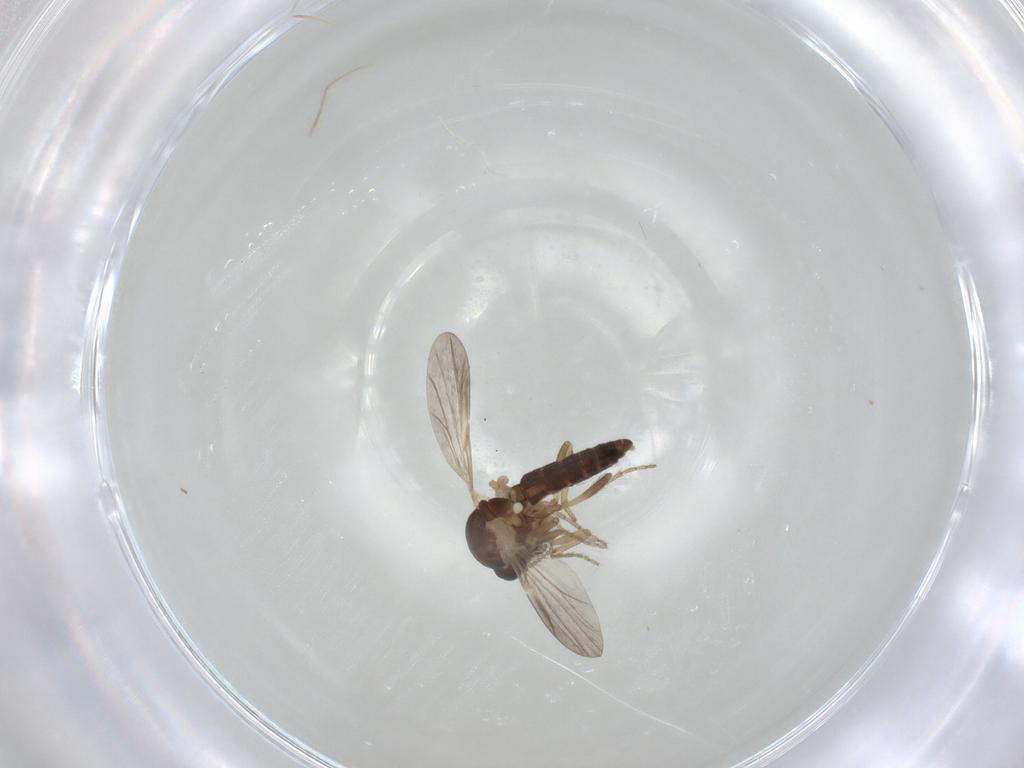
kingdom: Animalia
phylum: Arthropoda
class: Insecta
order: Diptera
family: Ceratopogonidae
